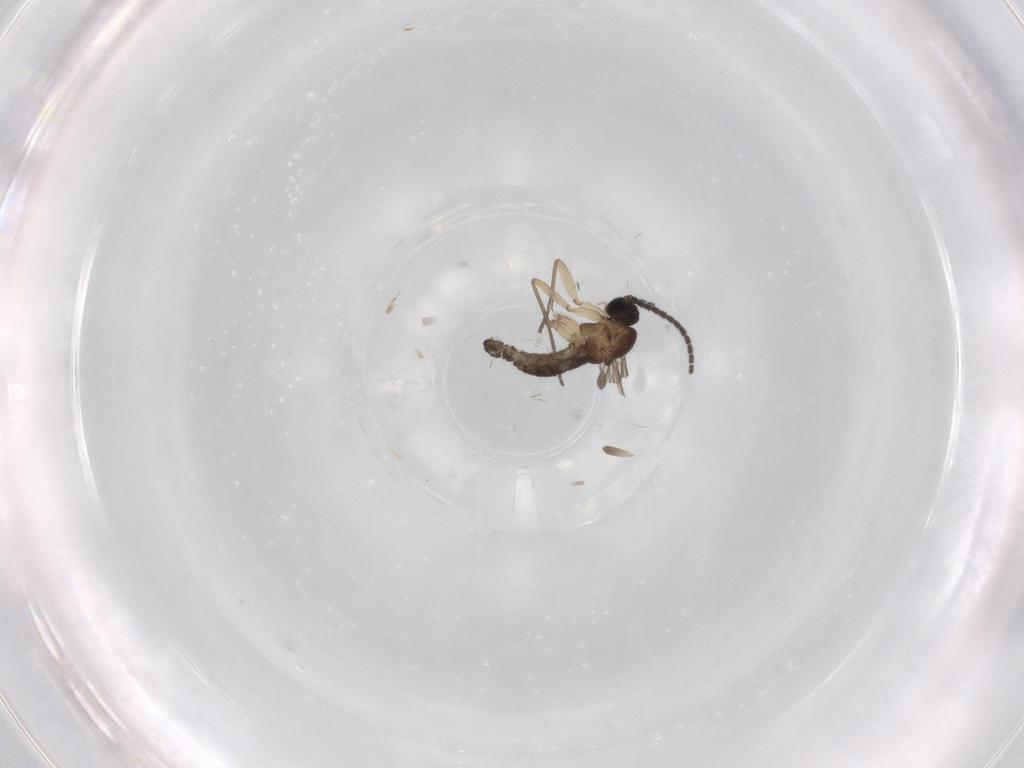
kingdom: Animalia
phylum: Arthropoda
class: Insecta
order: Diptera
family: Sciaridae
